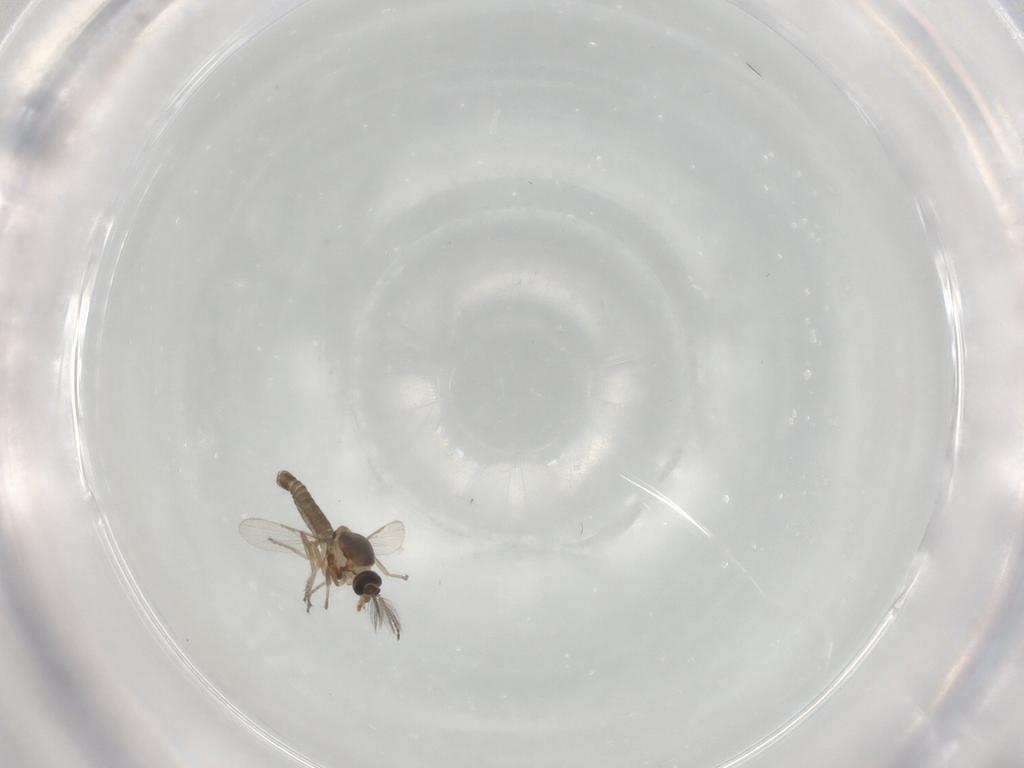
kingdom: Animalia
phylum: Arthropoda
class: Insecta
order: Diptera
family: Ceratopogonidae
